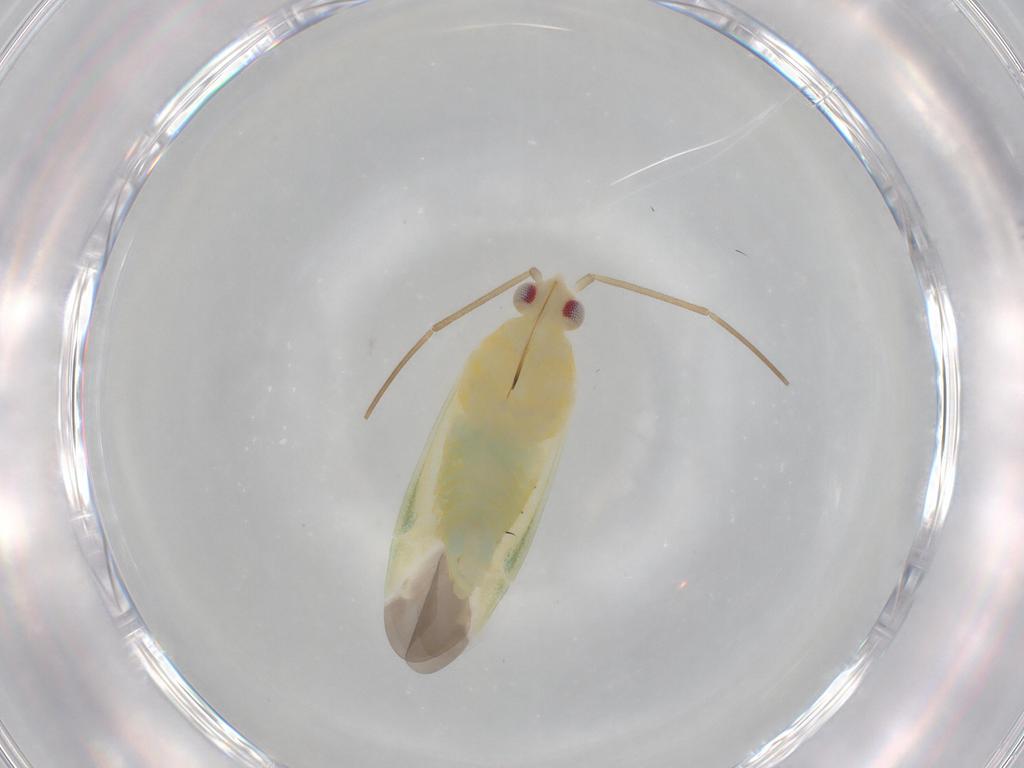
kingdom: Animalia
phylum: Arthropoda
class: Insecta
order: Hemiptera
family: Miridae
